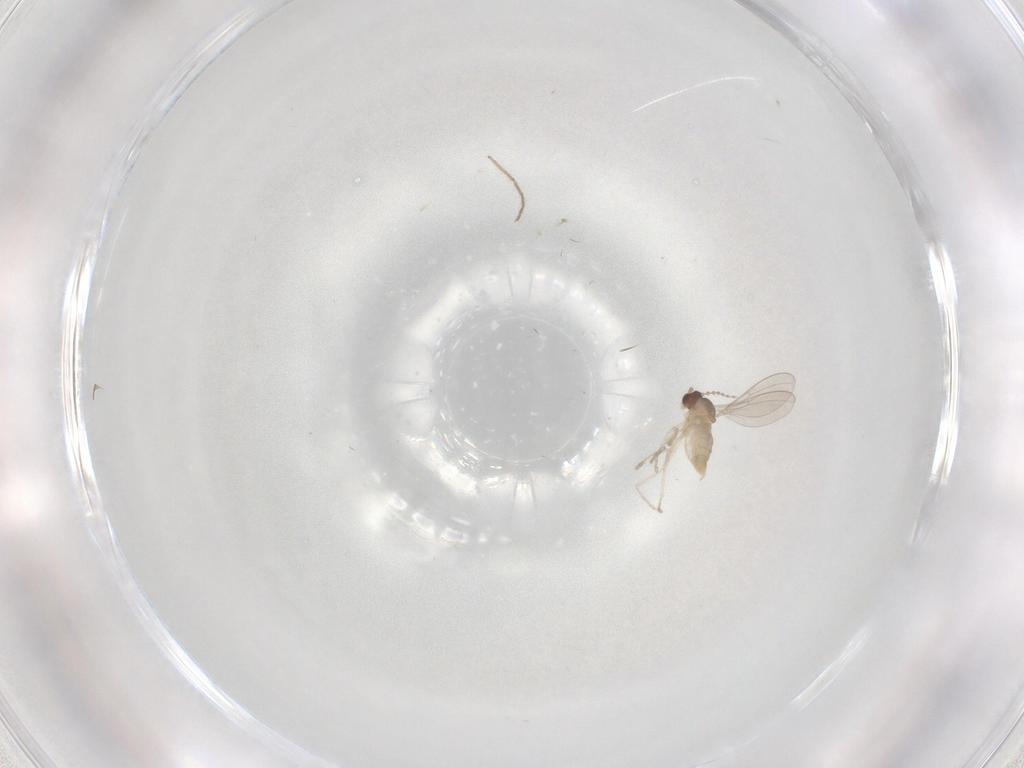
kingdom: Animalia
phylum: Arthropoda
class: Insecta
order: Diptera
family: Cecidomyiidae
